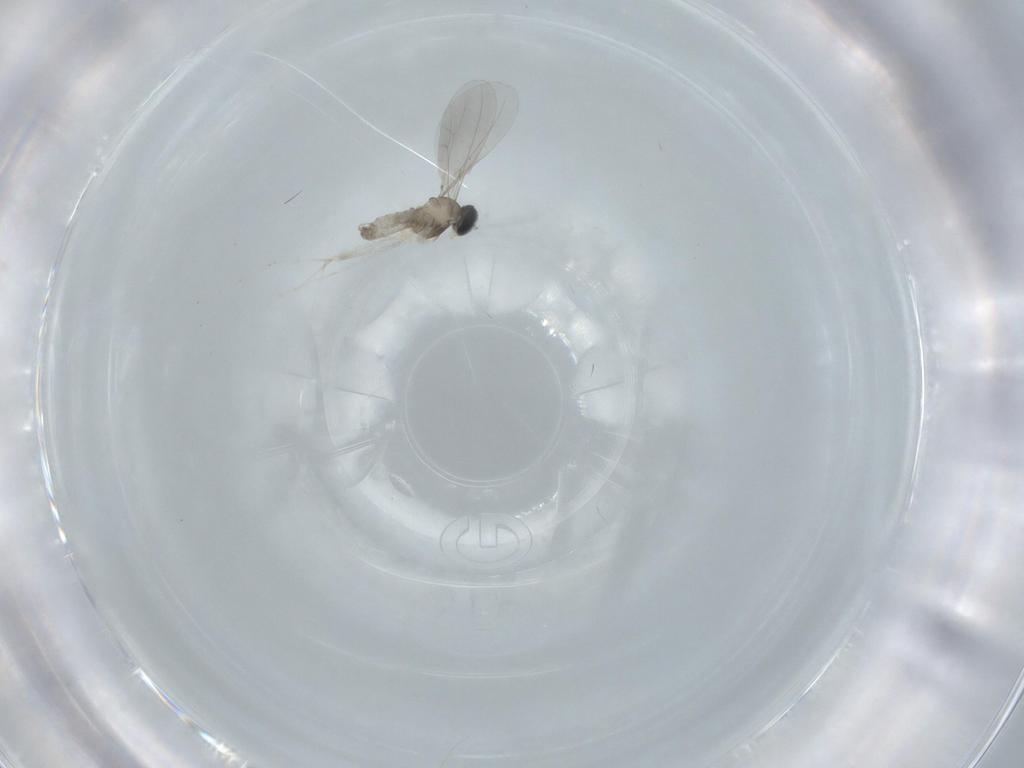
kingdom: Animalia
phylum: Arthropoda
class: Insecta
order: Diptera
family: Cecidomyiidae
